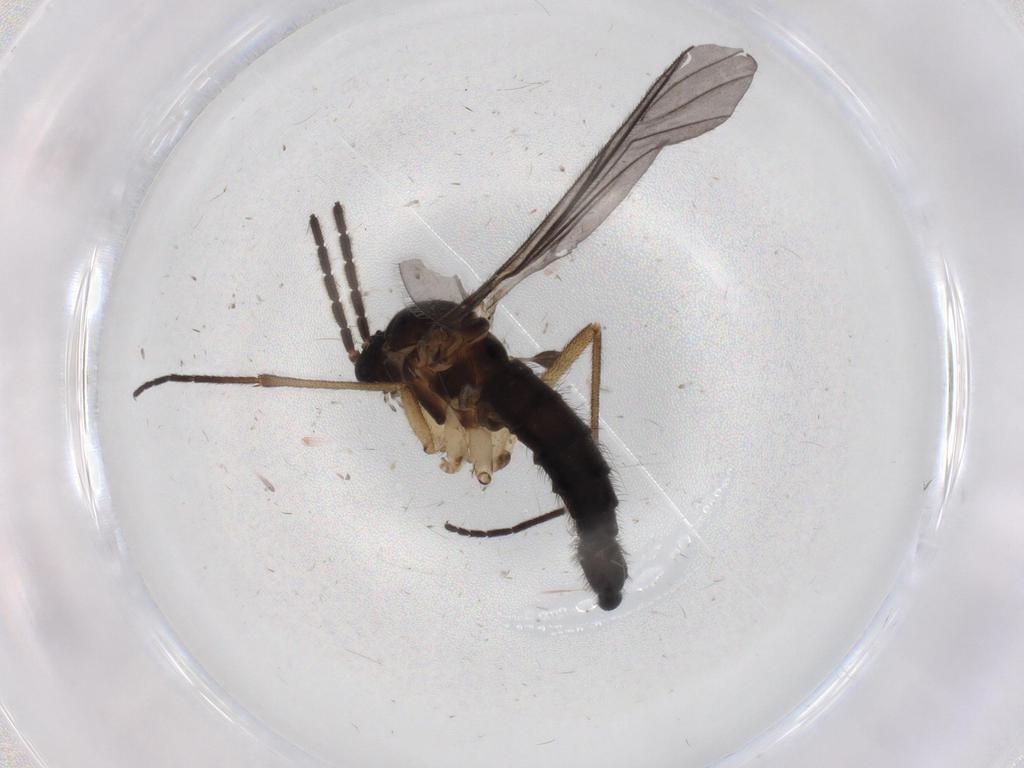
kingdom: Animalia
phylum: Arthropoda
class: Insecta
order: Diptera
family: Sciaridae
